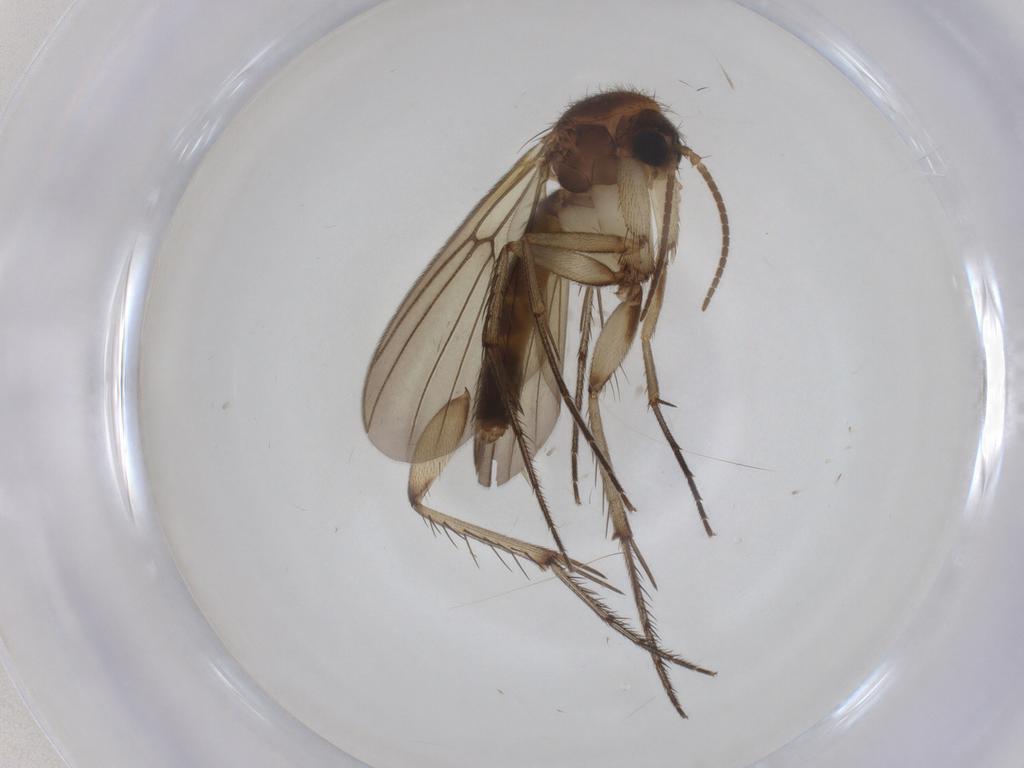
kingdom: Animalia
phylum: Arthropoda
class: Insecta
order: Diptera
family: Mycetophilidae
